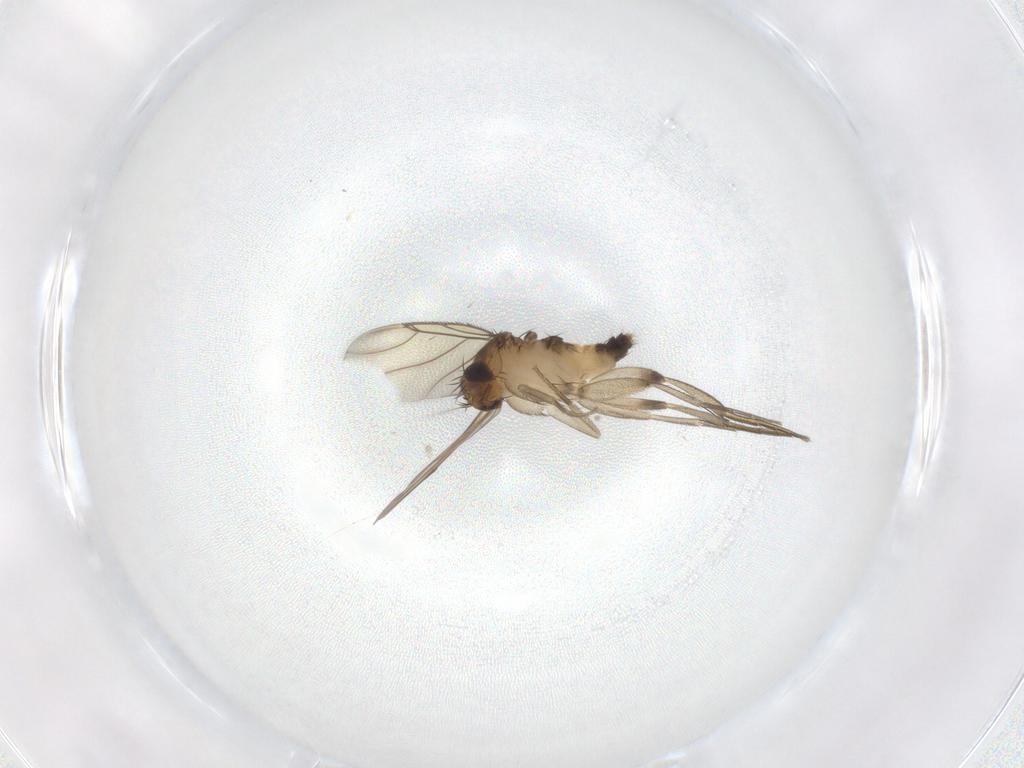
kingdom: Animalia
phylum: Arthropoda
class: Insecta
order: Diptera
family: Phoridae
